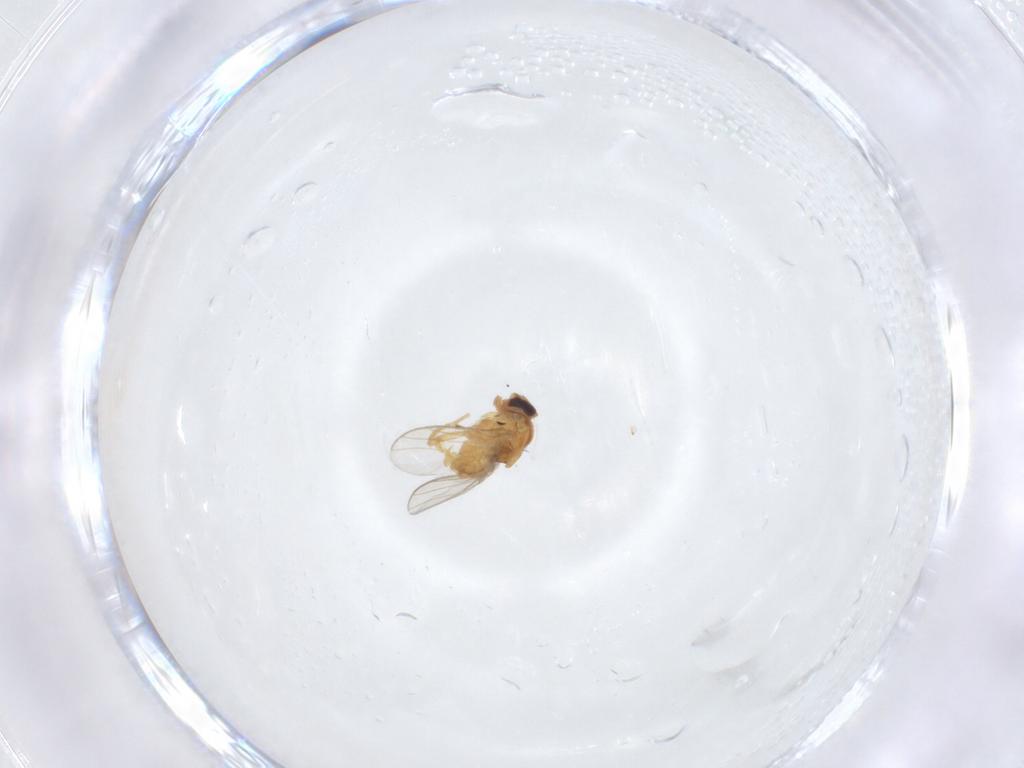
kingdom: Animalia
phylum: Arthropoda
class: Insecta
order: Diptera
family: Chloropidae
